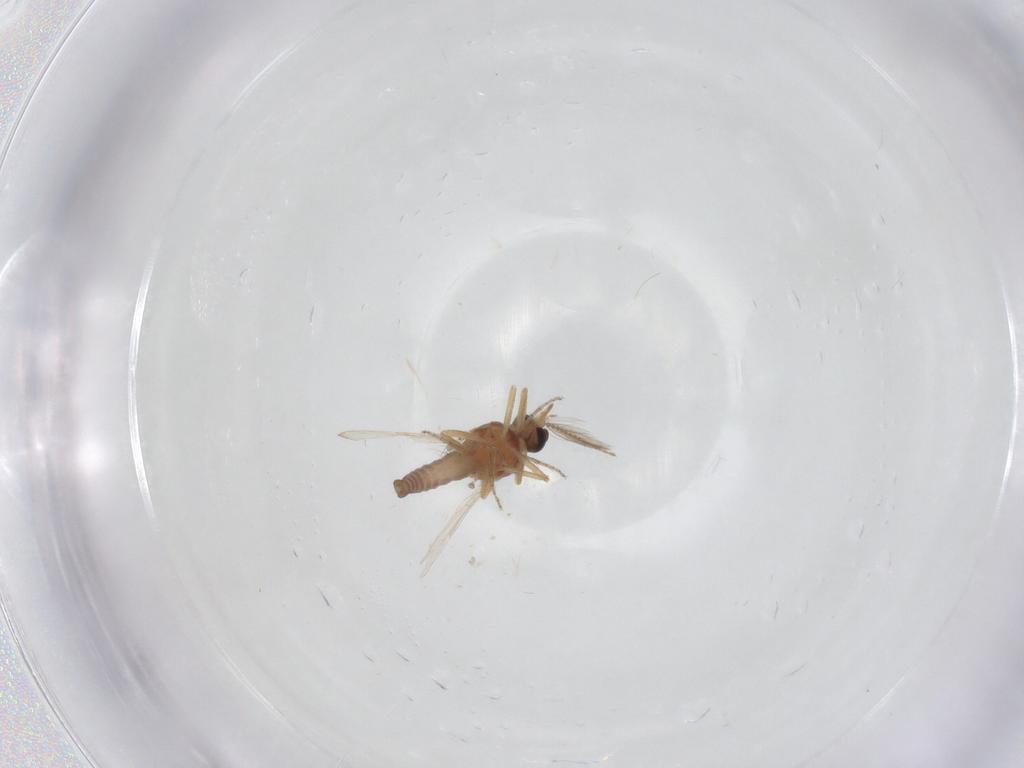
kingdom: Animalia
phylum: Arthropoda
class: Insecta
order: Diptera
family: Ceratopogonidae
